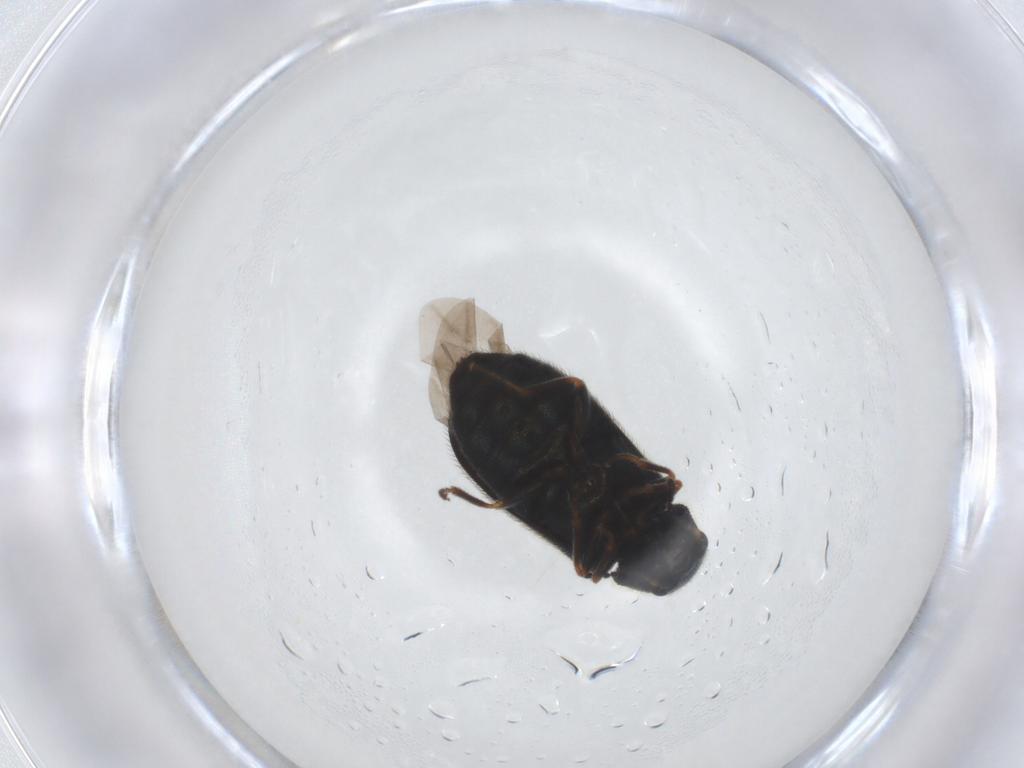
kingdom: Animalia
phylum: Arthropoda
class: Insecta
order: Coleoptera
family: Melyridae
